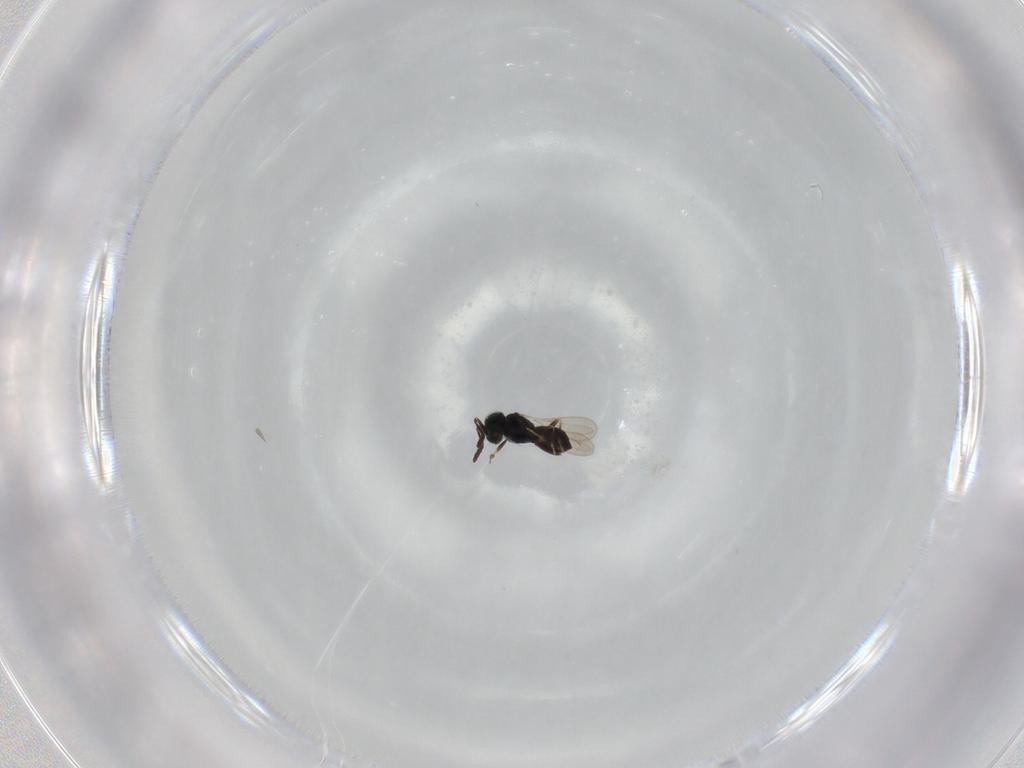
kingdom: Animalia
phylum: Arthropoda
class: Insecta
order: Hymenoptera
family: Scelionidae
